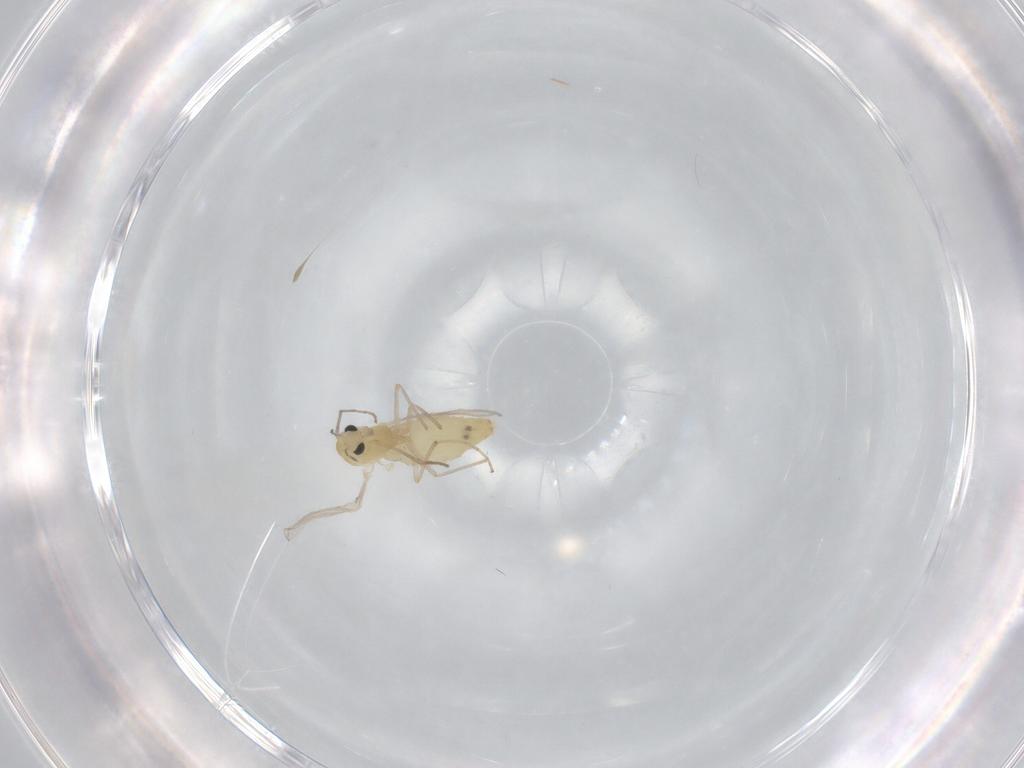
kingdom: Animalia
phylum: Arthropoda
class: Insecta
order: Diptera
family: Chironomidae
